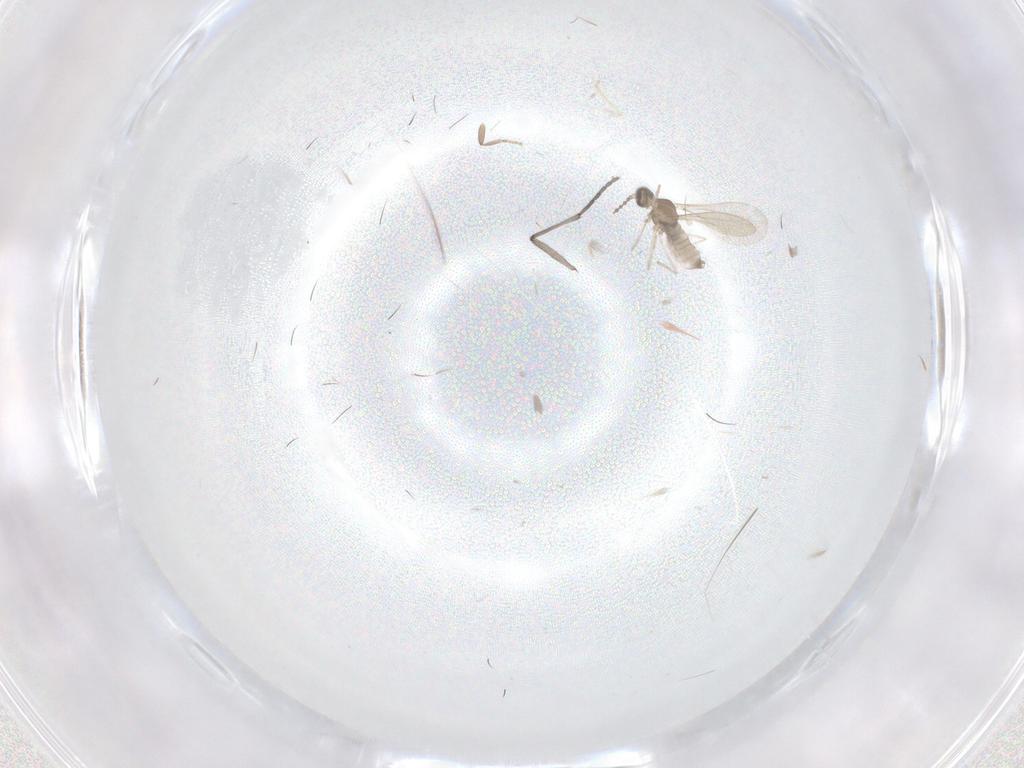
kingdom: Animalia
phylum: Arthropoda
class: Insecta
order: Diptera
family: Sciaridae
